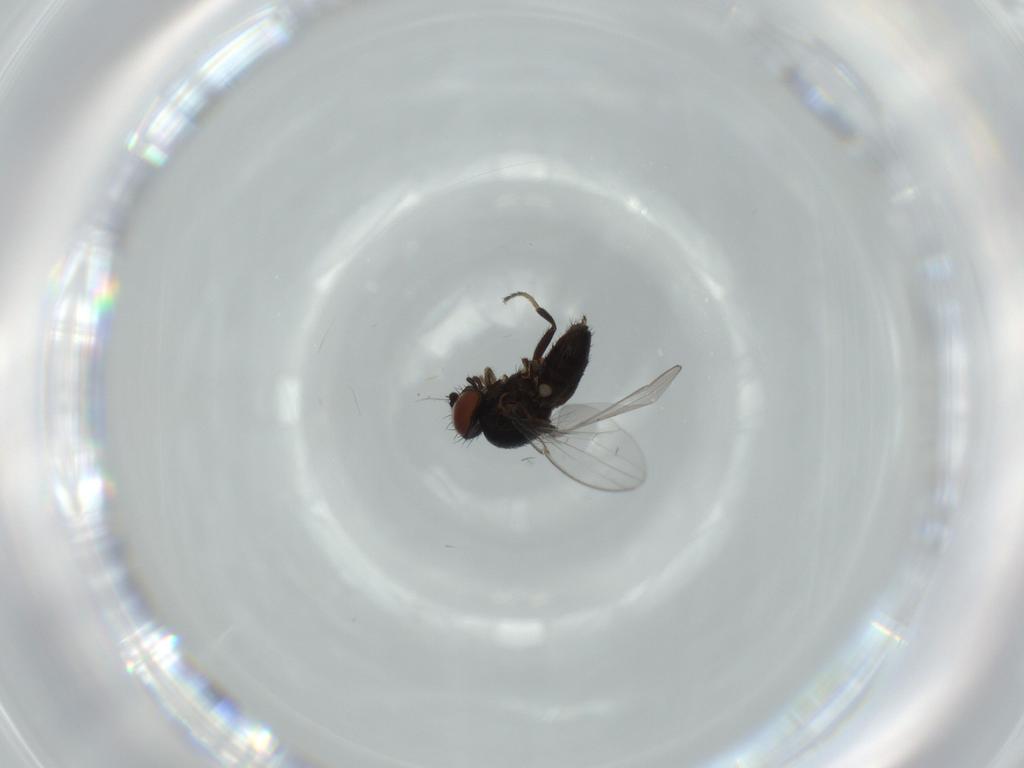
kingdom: Animalia
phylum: Arthropoda
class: Insecta
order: Diptera
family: Milichiidae
